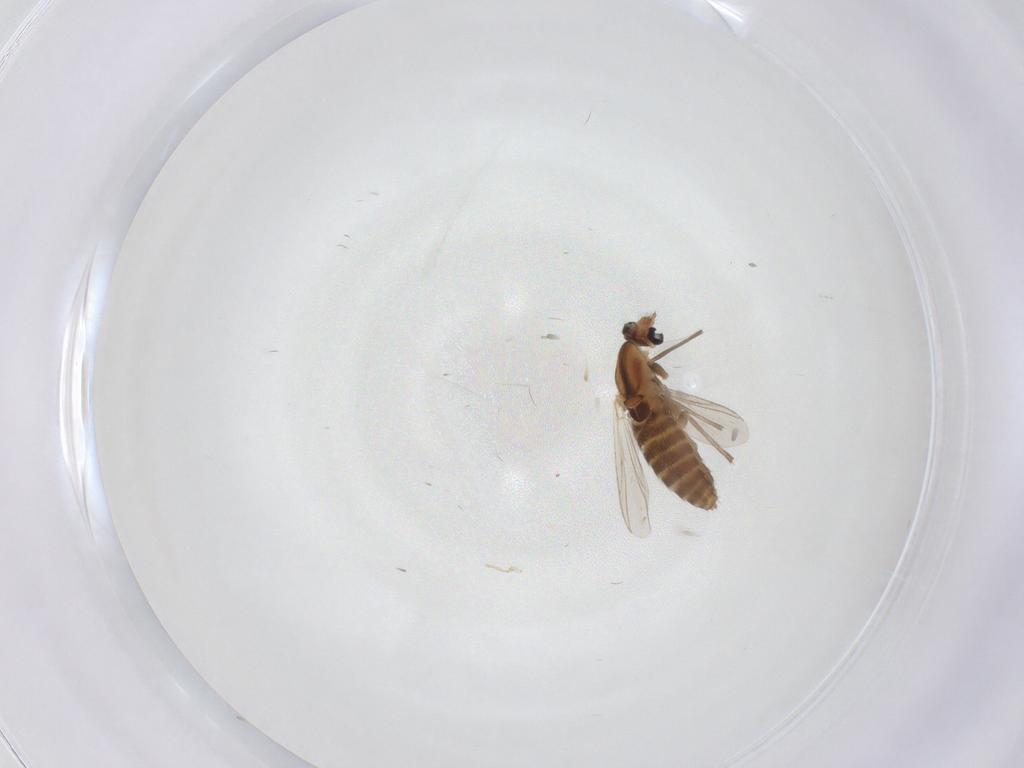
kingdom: Animalia
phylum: Arthropoda
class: Insecta
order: Diptera
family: Chironomidae
